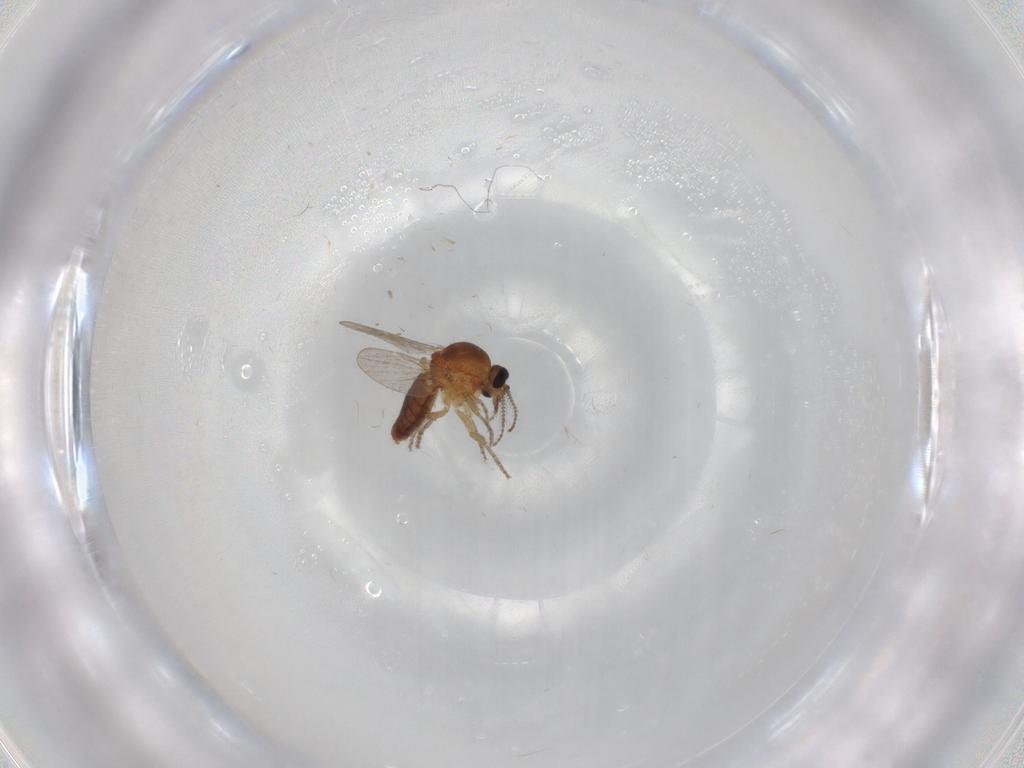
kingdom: Animalia
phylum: Arthropoda
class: Insecta
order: Diptera
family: Ceratopogonidae
